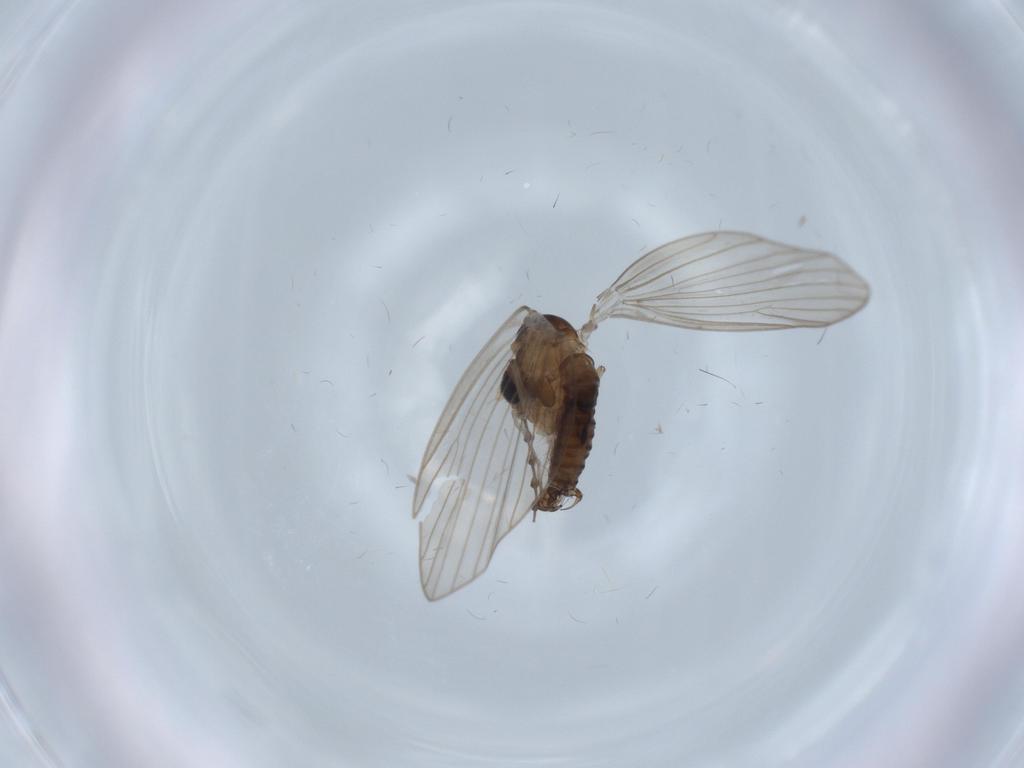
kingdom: Animalia
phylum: Arthropoda
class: Insecta
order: Diptera
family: Psychodidae
